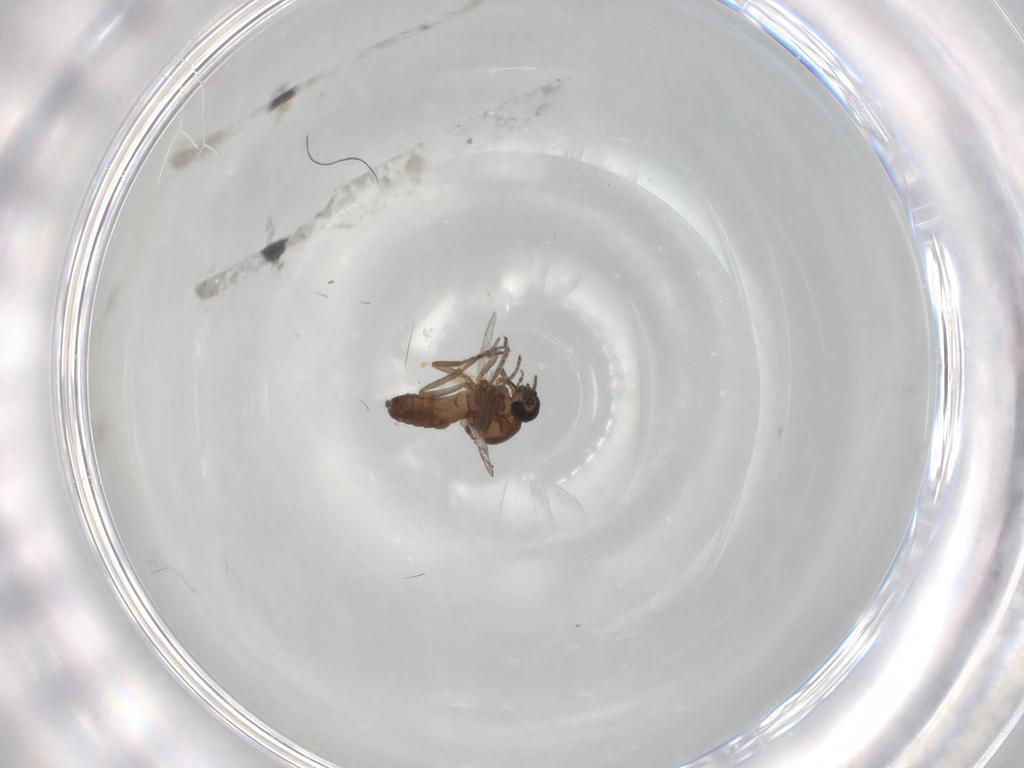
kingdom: Animalia
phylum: Arthropoda
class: Insecta
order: Diptera
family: Ceratopogonidae
